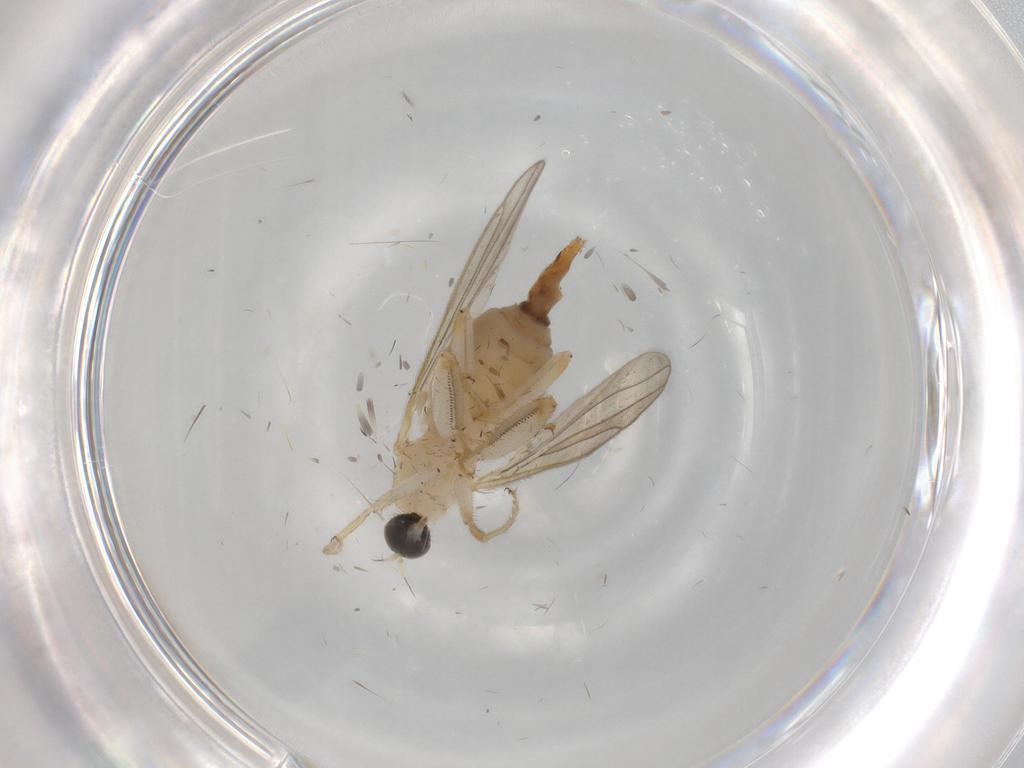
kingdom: Animalia
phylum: Arthropoda
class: Insecta
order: Diptera
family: Hybotidae
